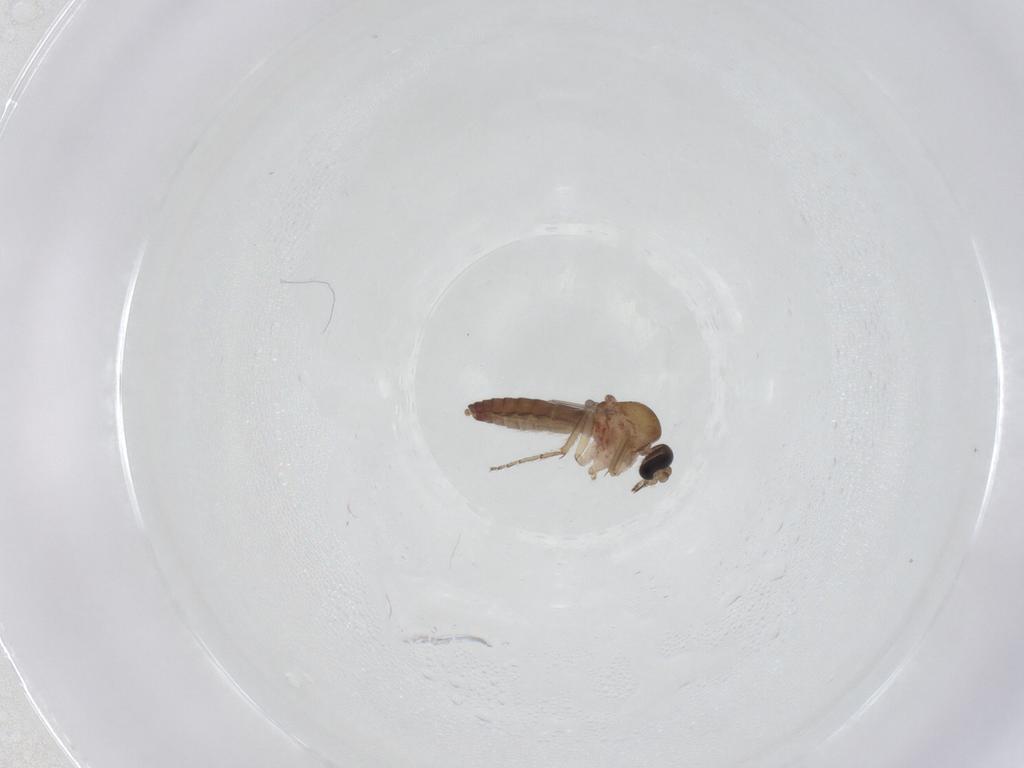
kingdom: Animalia
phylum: Arthropoda
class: Insecta
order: Diptera
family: Ceratopogonidae
